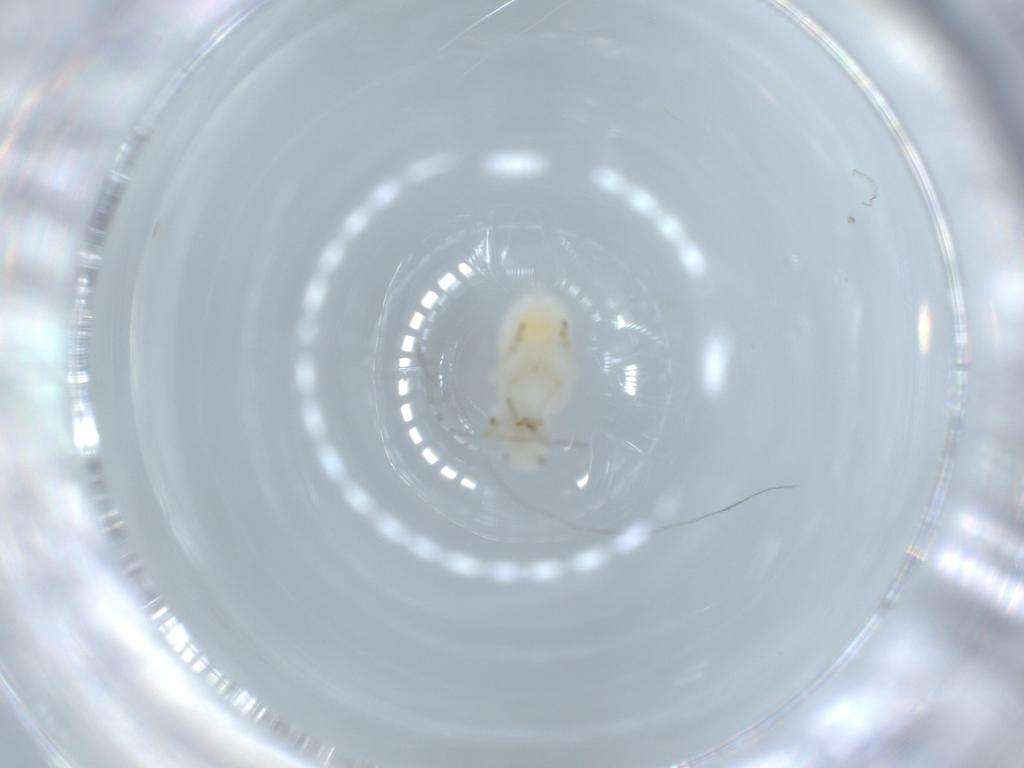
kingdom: Animalia
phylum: Arthropoda
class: Insecta
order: Hemiptera
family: Flatidae
